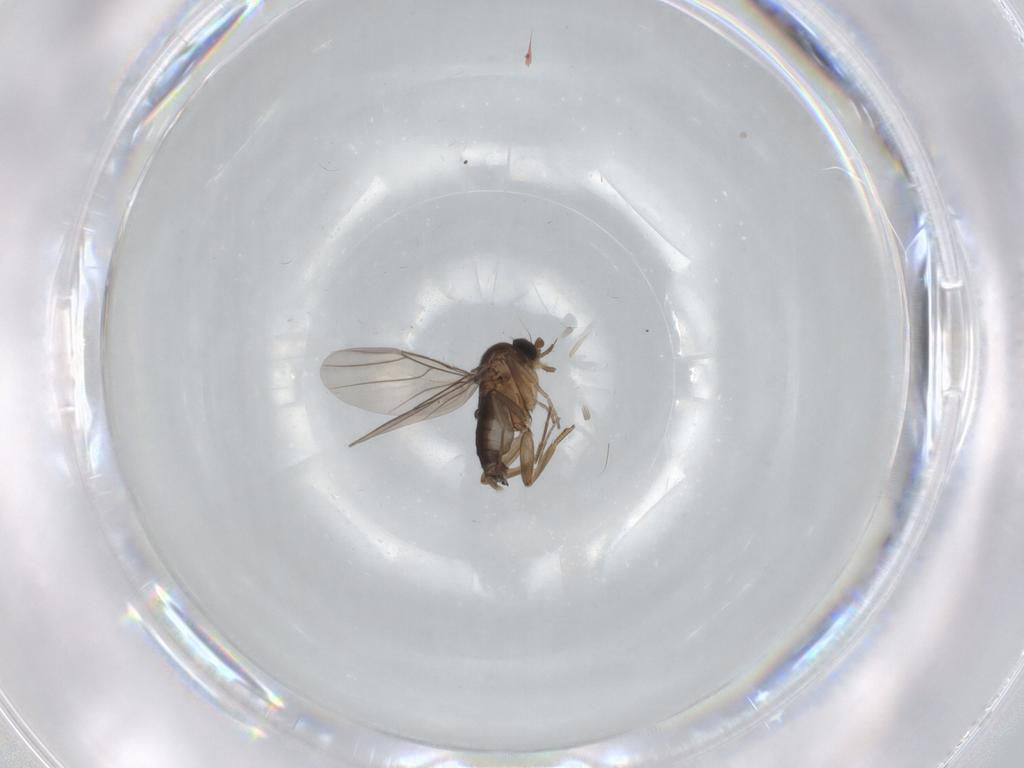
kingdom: Animalia
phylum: Arthropoda
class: Insecta
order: Diptera
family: Phoridae
